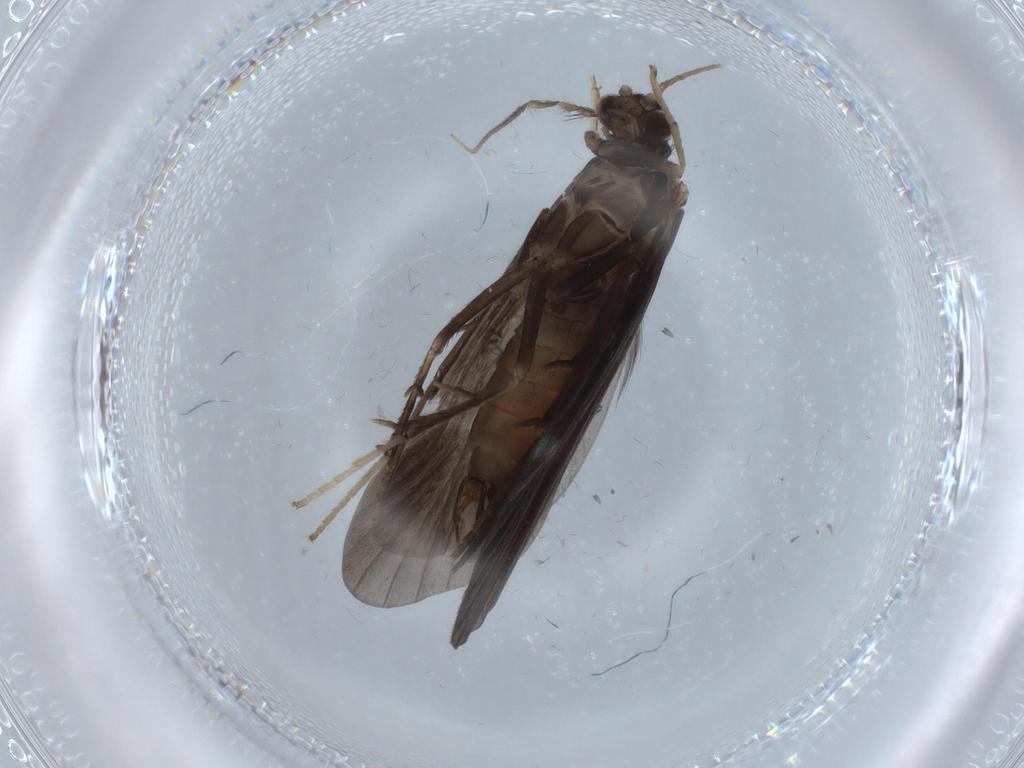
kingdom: Animalia
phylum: Arthropoda
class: Insecta
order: Trichoptera
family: Hydropsychidae
